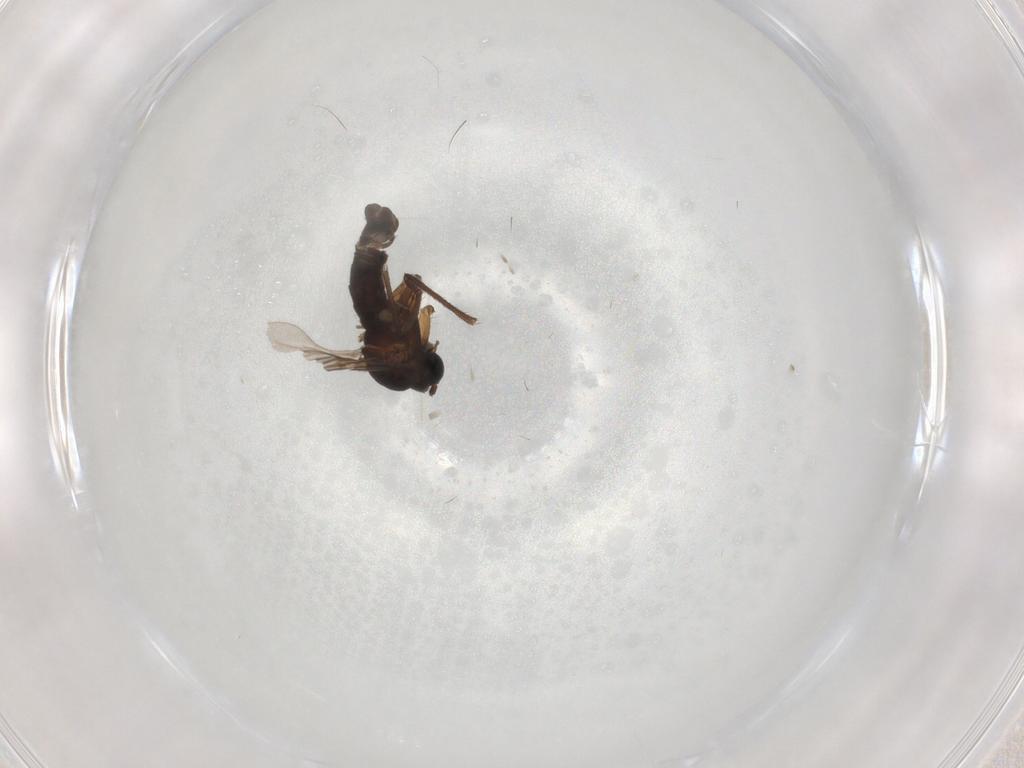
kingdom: Animalia
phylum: Arthropoda
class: Insecta
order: Diptera
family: Sciaridae
